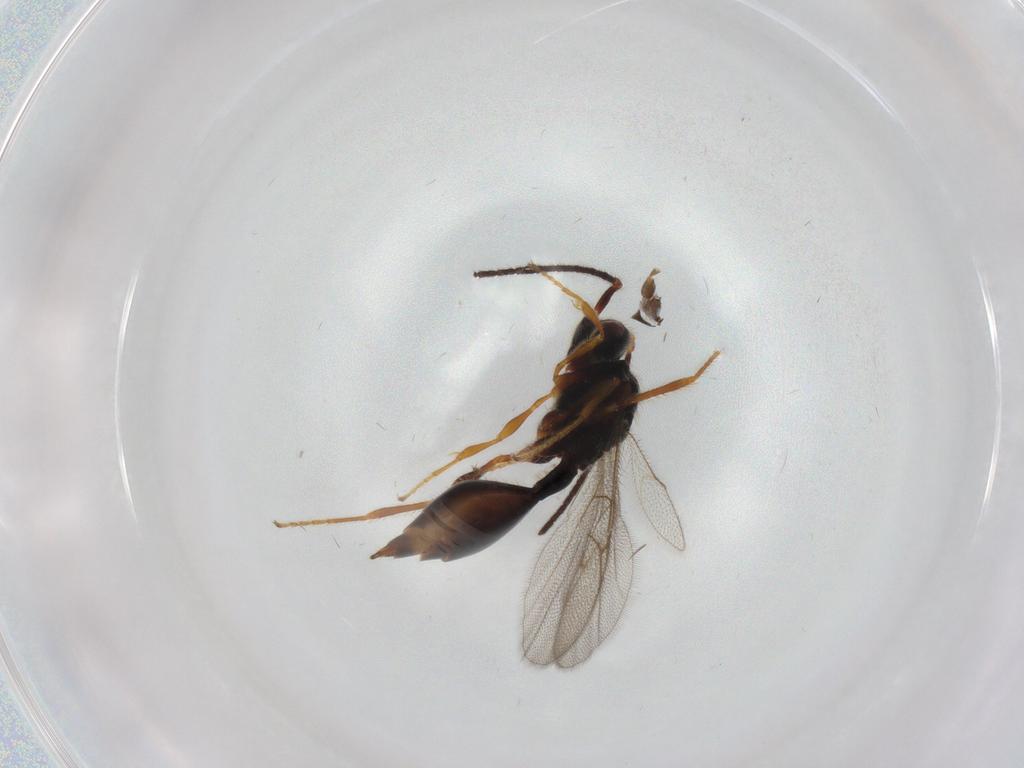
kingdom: Animalia
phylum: Arthropoda
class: Insecta
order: Hymenoptera
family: Bethylidae
